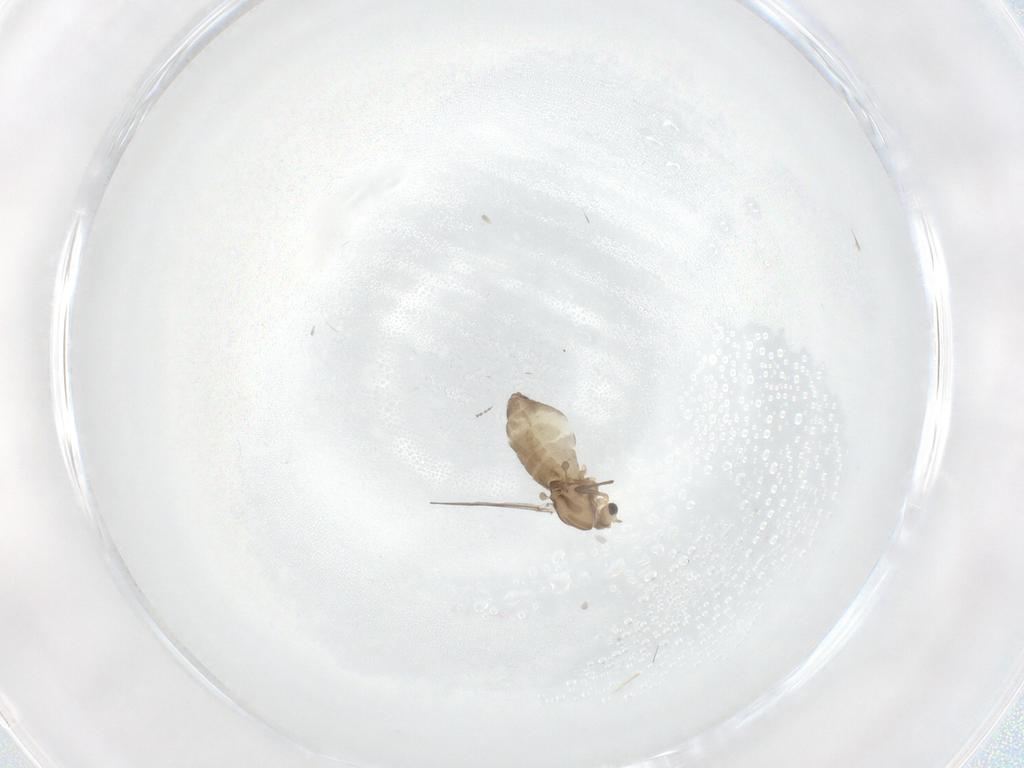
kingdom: Animalia
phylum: Arthropoda
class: Insecta
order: Diptera
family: Chironomidae
